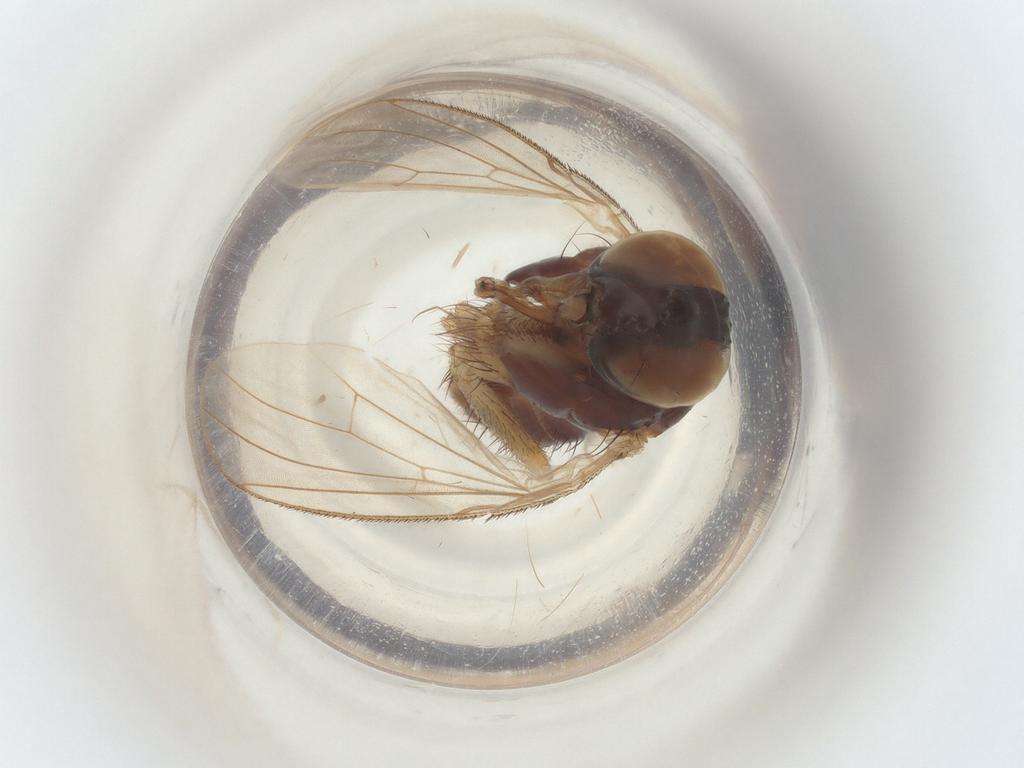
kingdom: Animalia
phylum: Arthropoda
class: Insecta
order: Diptera
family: Muscidae
